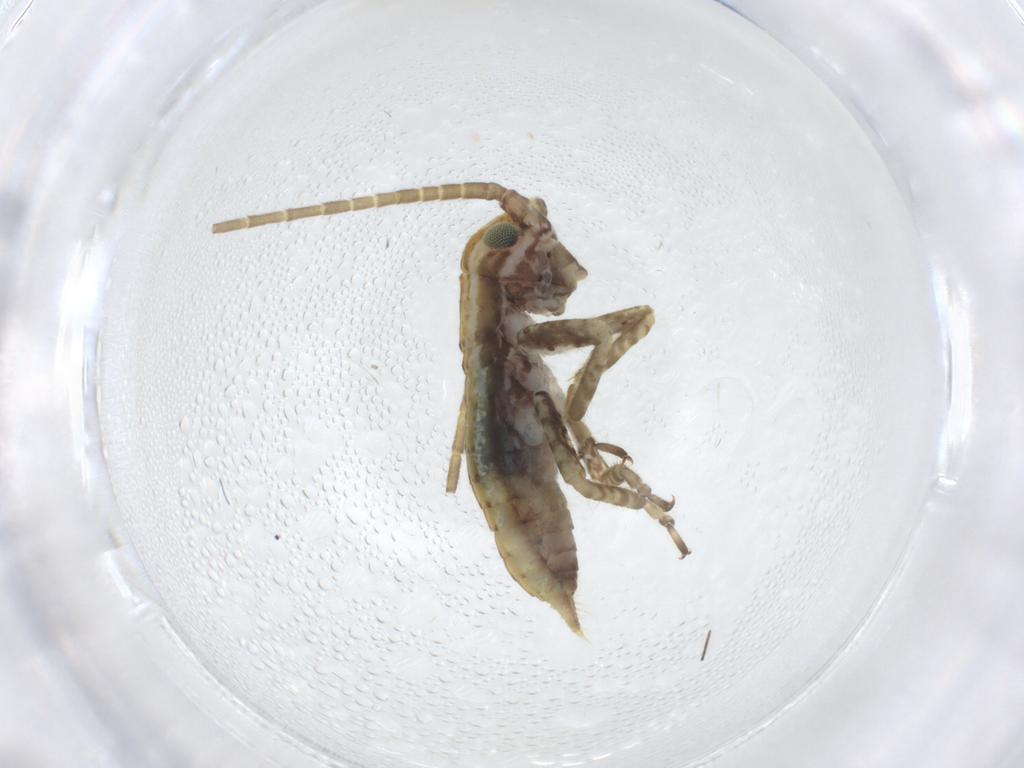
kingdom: Animalia
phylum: Arthropoda
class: Insecta
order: Orthoptera
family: Gryllidae
